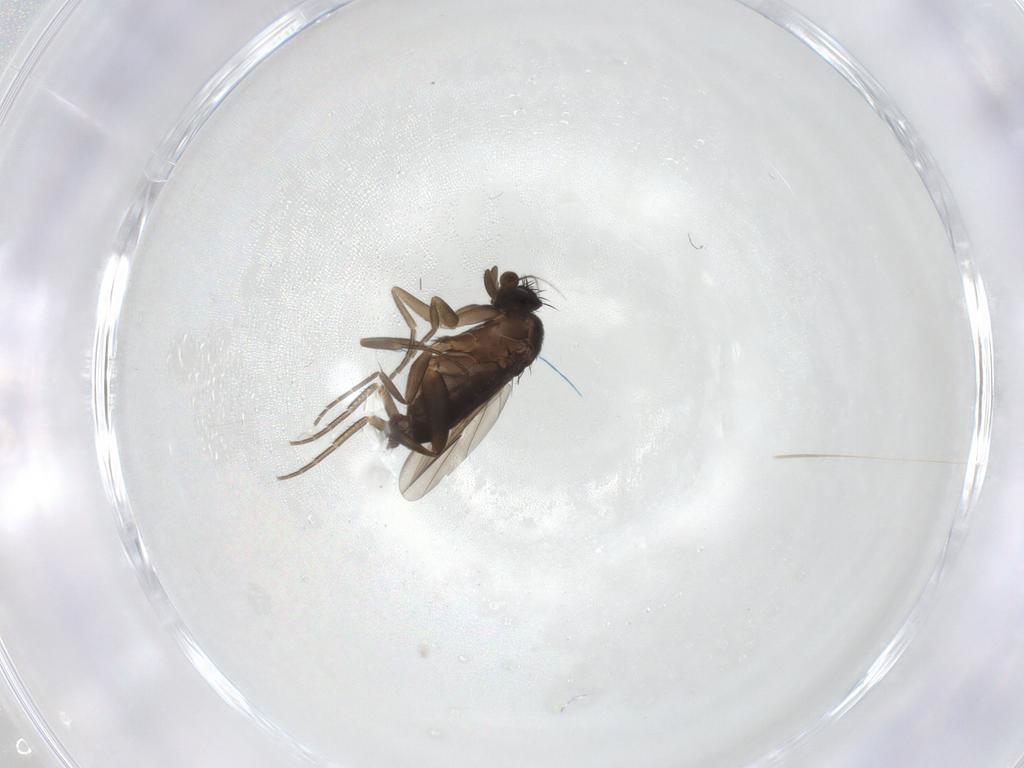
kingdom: Animalia
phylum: Arthropoda
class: Insecta
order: Diptera
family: Phoridae
